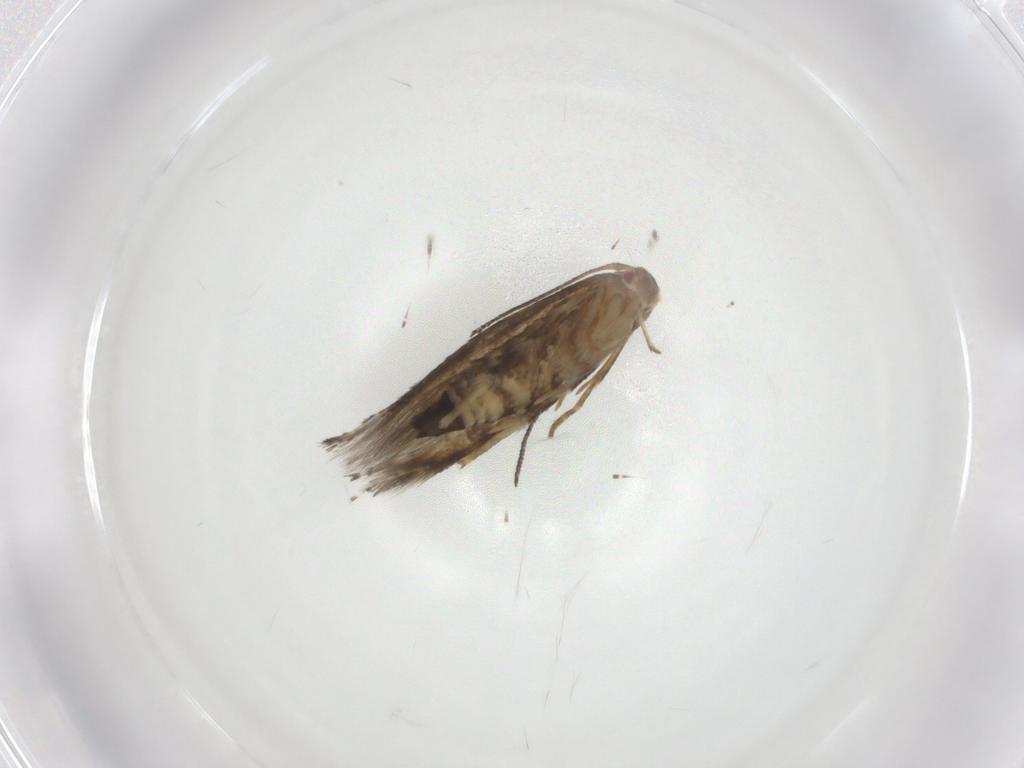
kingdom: Animalia
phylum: Arthropoda
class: Insecta
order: Lepidoptera
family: Momphidae
